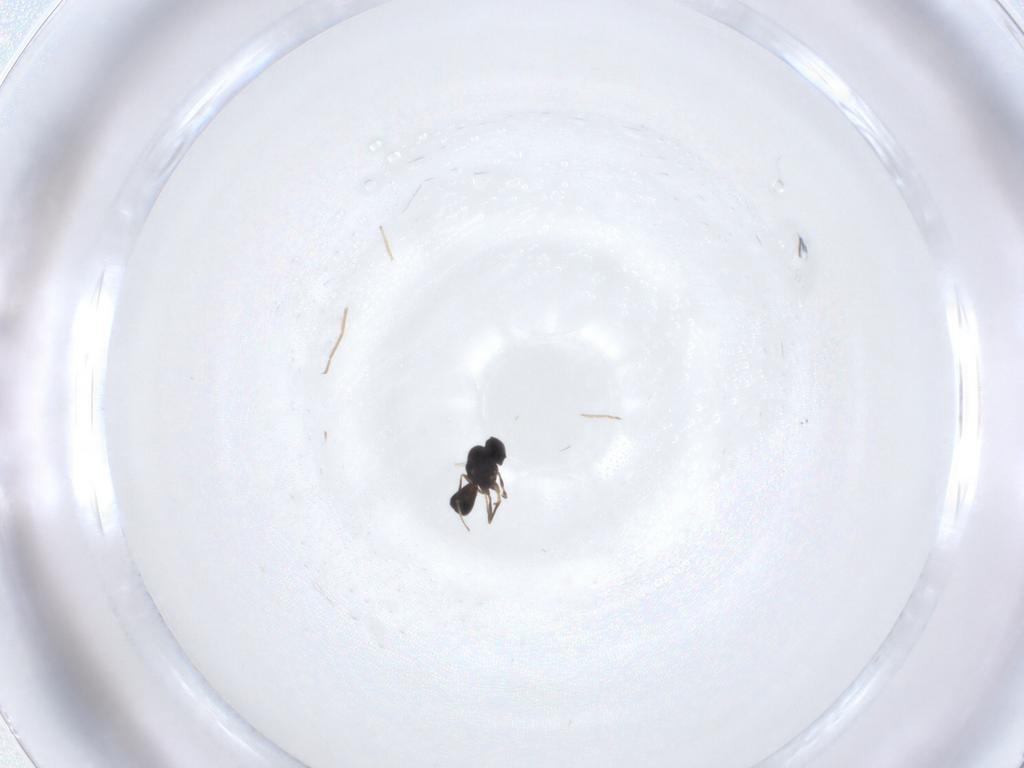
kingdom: Animalia
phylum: Arthropoda
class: Insecta
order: Hymenoptera
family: Scelionidae
